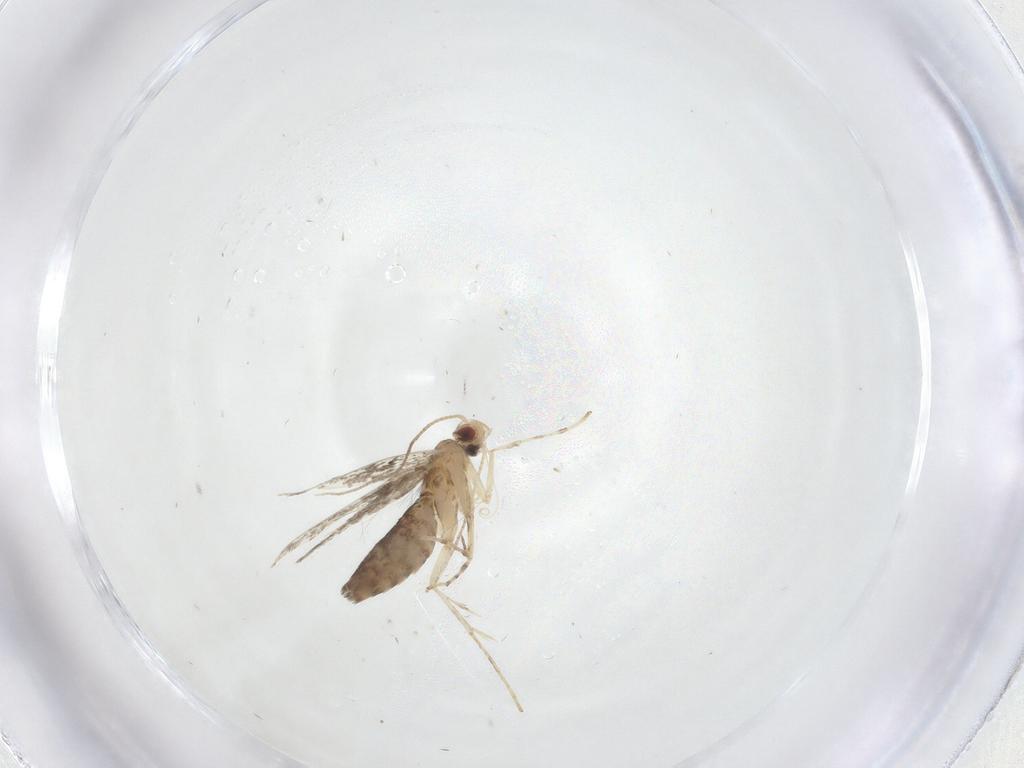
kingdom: Animalia
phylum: Arthropoda
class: Insecta
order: Lepidoptera
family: Gracillariidae
